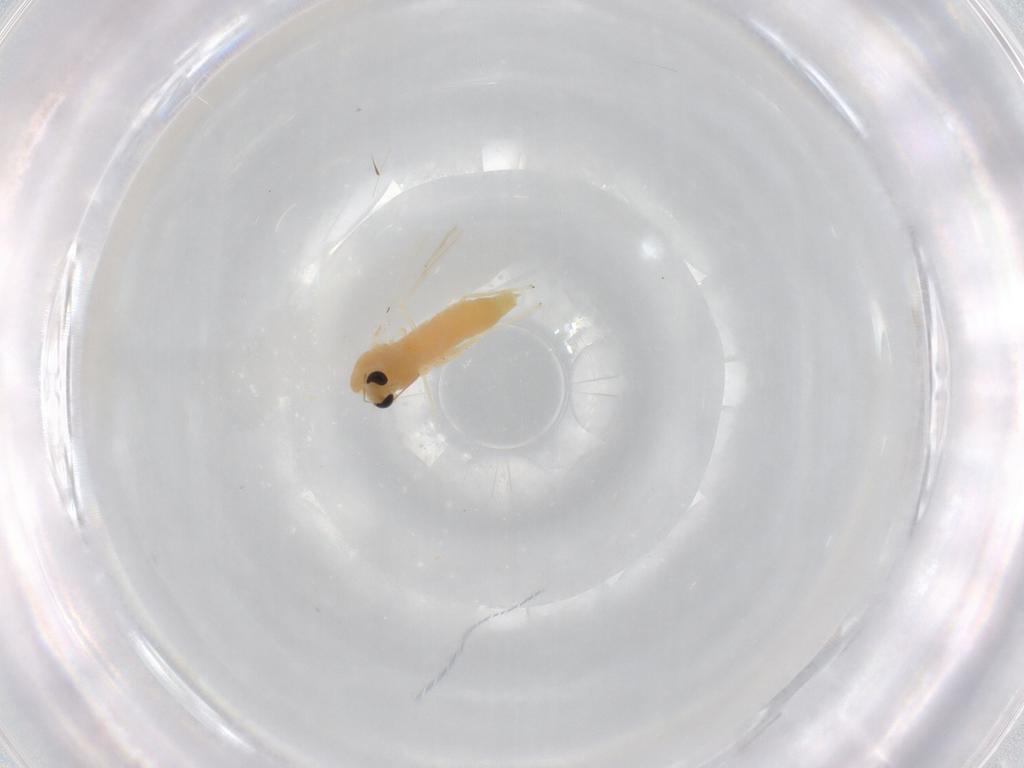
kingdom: Animalia
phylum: Arthropoda
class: Insecta
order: Diptera
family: Chironomidae
